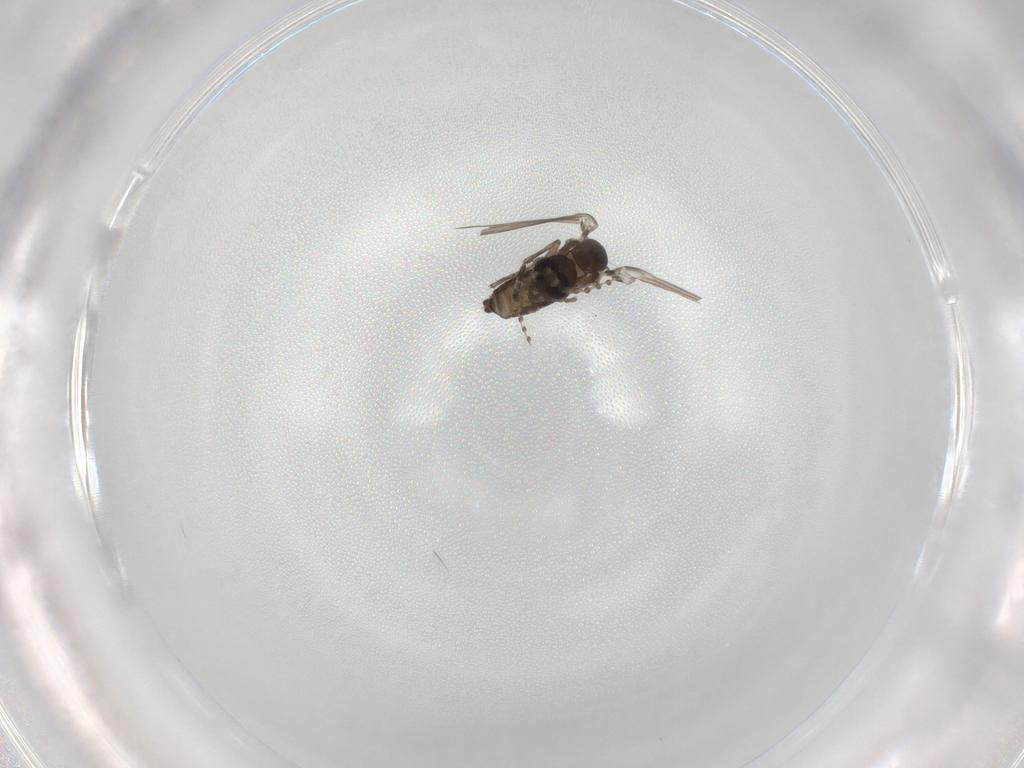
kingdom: Animalia
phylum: Arthropoda
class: Insecta
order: Diptera
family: Psychodidae
